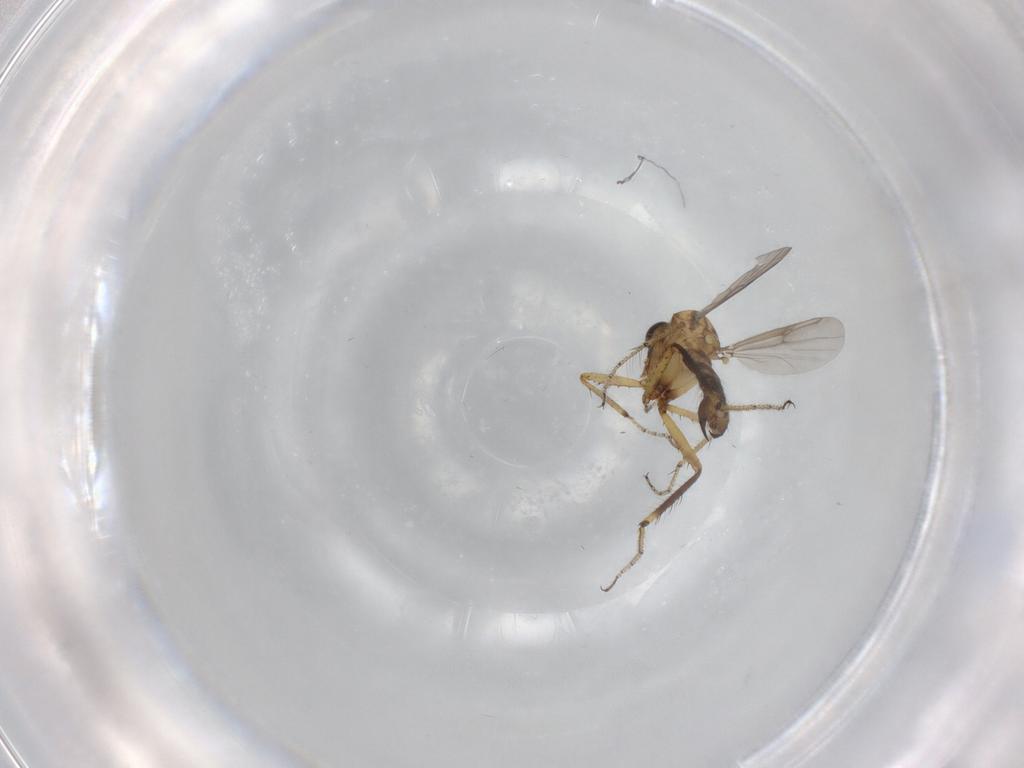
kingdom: Animalia
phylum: Arthropoda
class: Insecta
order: Diptera
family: Ceratopogonidae
